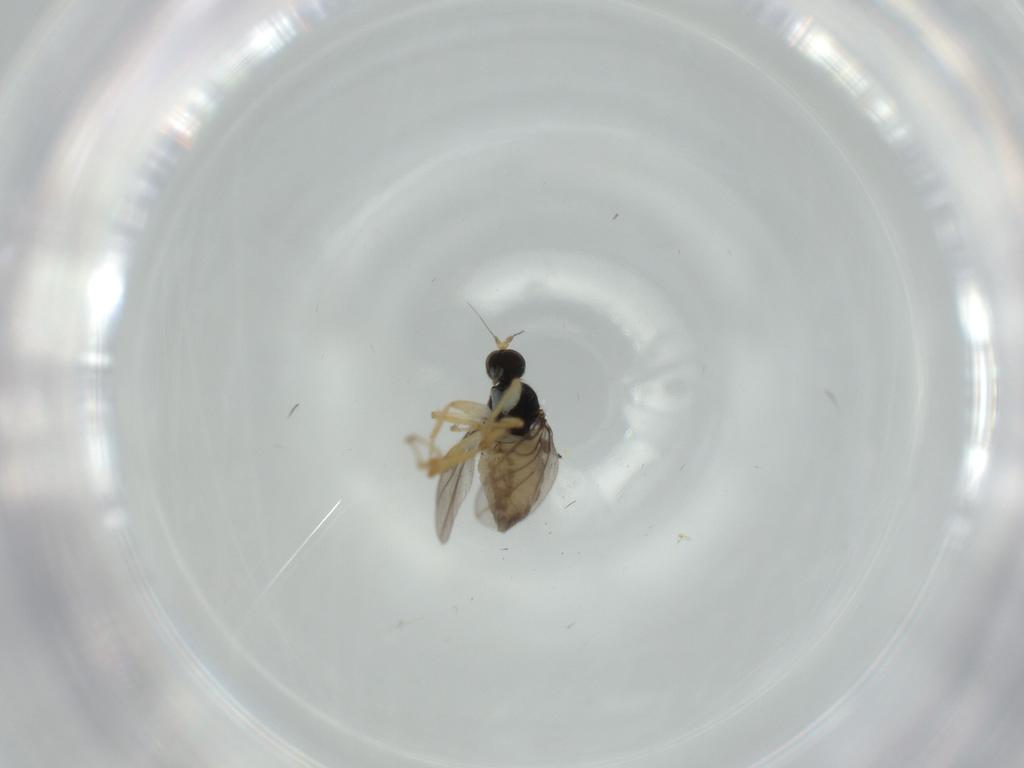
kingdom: Animalia
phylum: Arthropoda
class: Insecta
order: Diptera
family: Hybotidae
